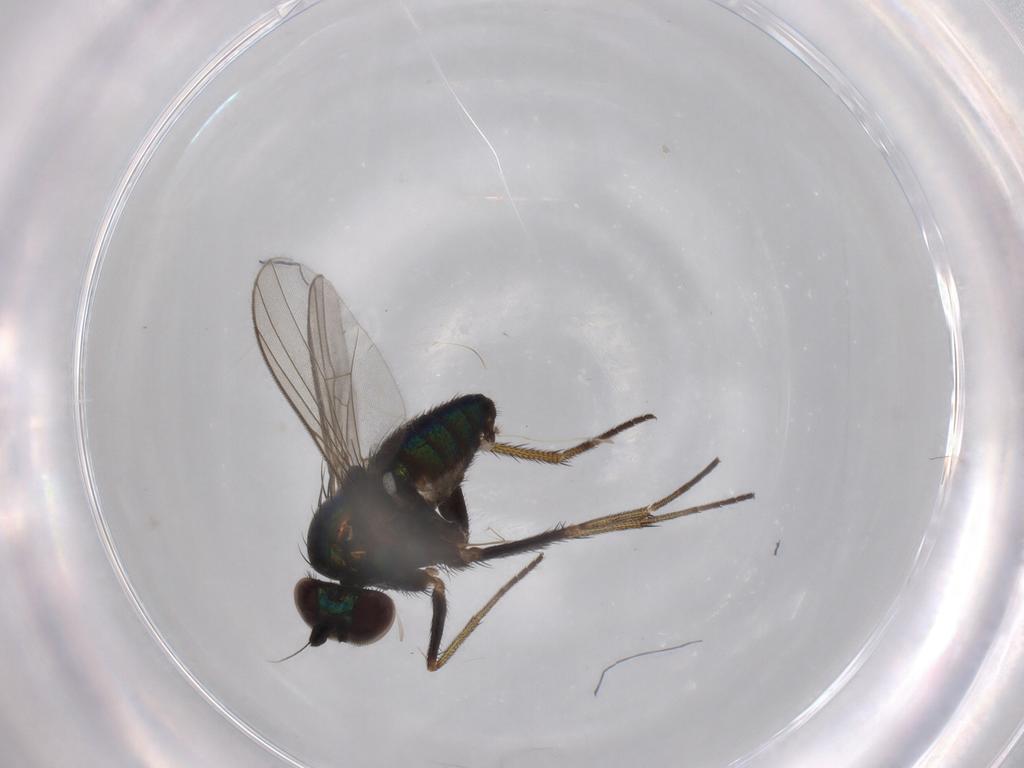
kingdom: Animalia
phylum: Arthropoda
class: Insecta
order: Diptera
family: Dolichopodidae
